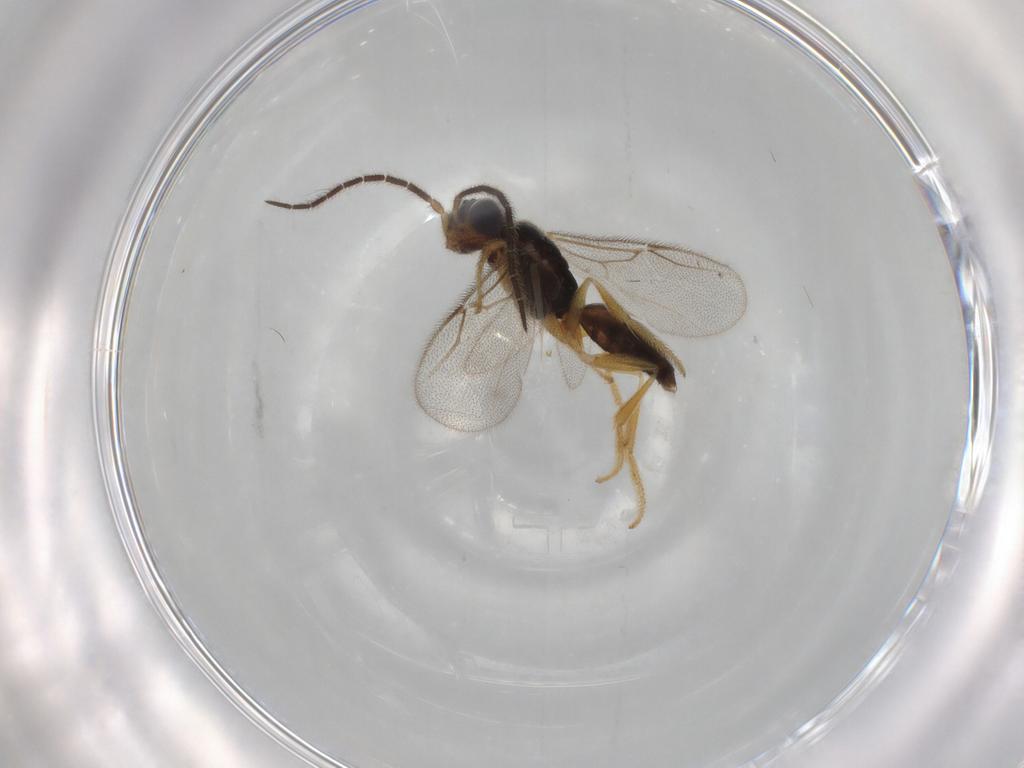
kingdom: Animalia
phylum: Arthropoda
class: Insecta
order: Hymenoptera
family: Dryinidae
